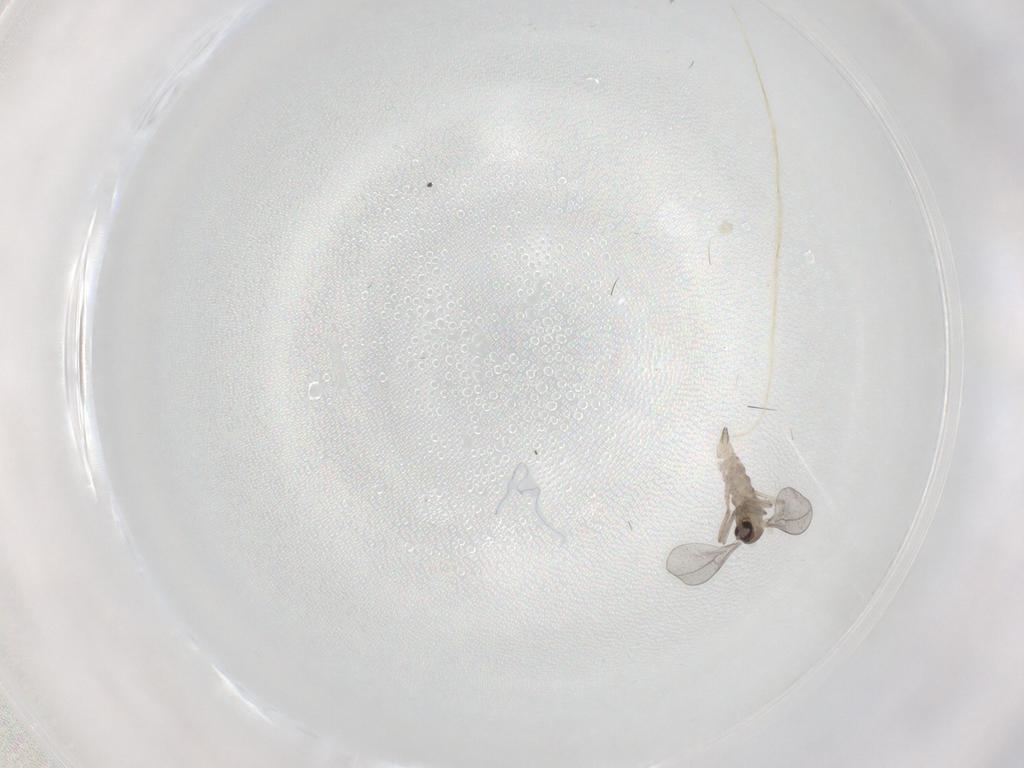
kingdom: Animalia
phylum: Arthropoda
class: Insecta
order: Diptera
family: Cecidomyiidae
